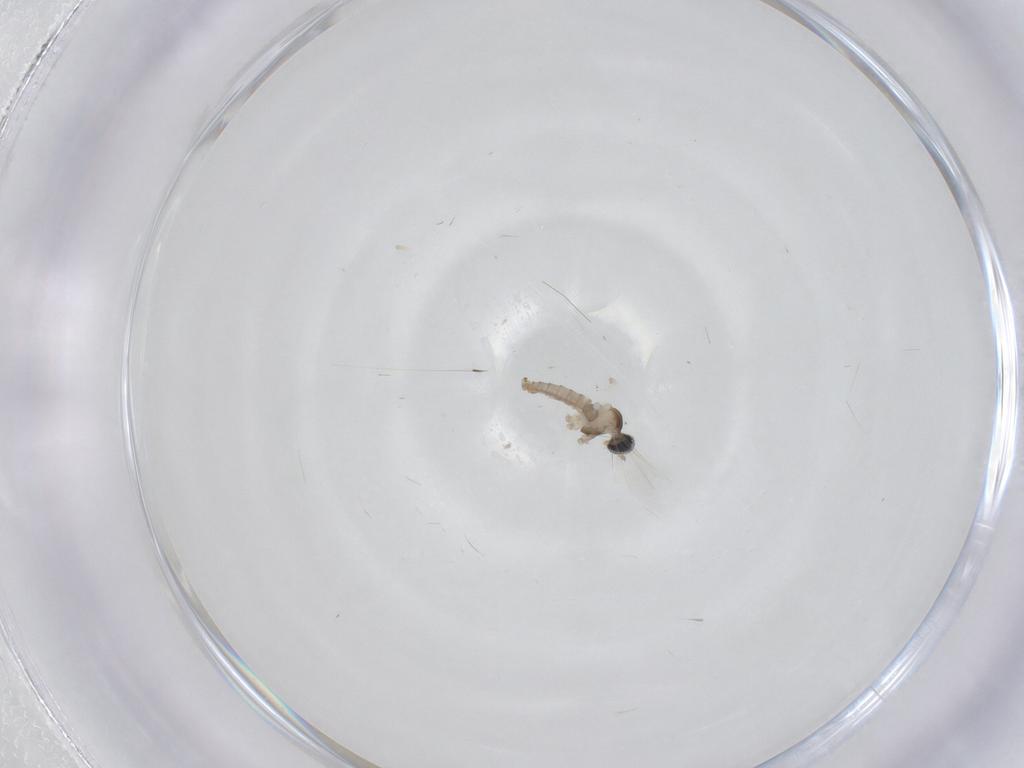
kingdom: Animalia
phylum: Arthropoda
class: Insecta
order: Diptera
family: Cecidomyiidae
